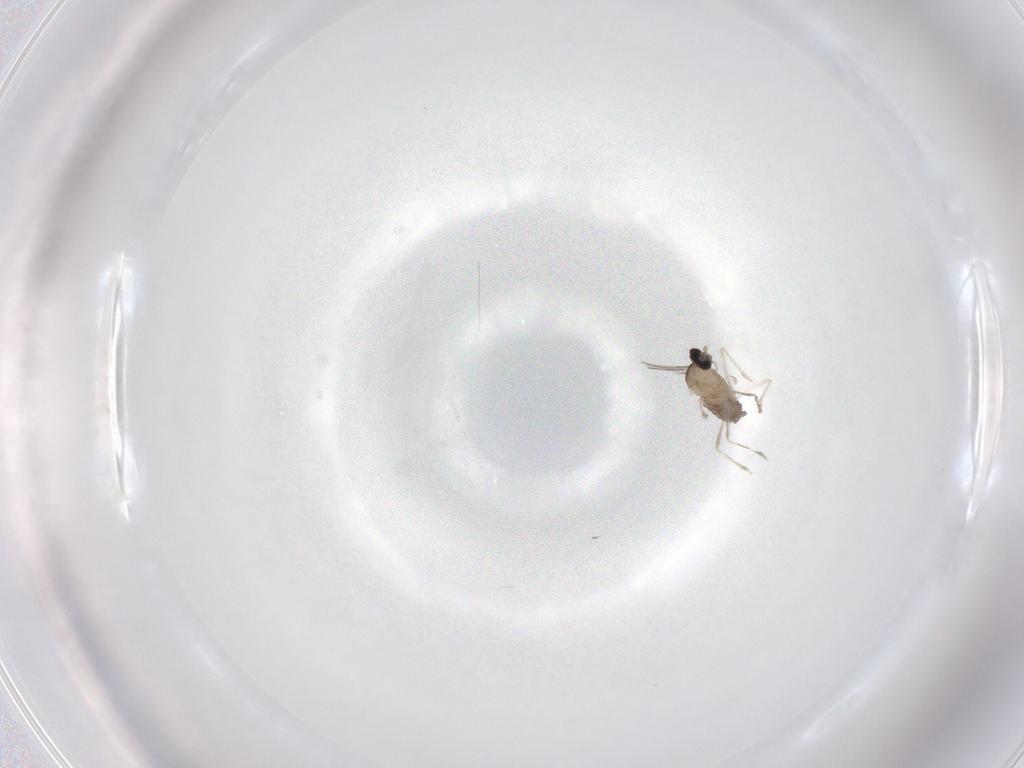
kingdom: Animalia
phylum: Arthropoda
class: Insecta
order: Diptera
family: Cecidomyiidae
